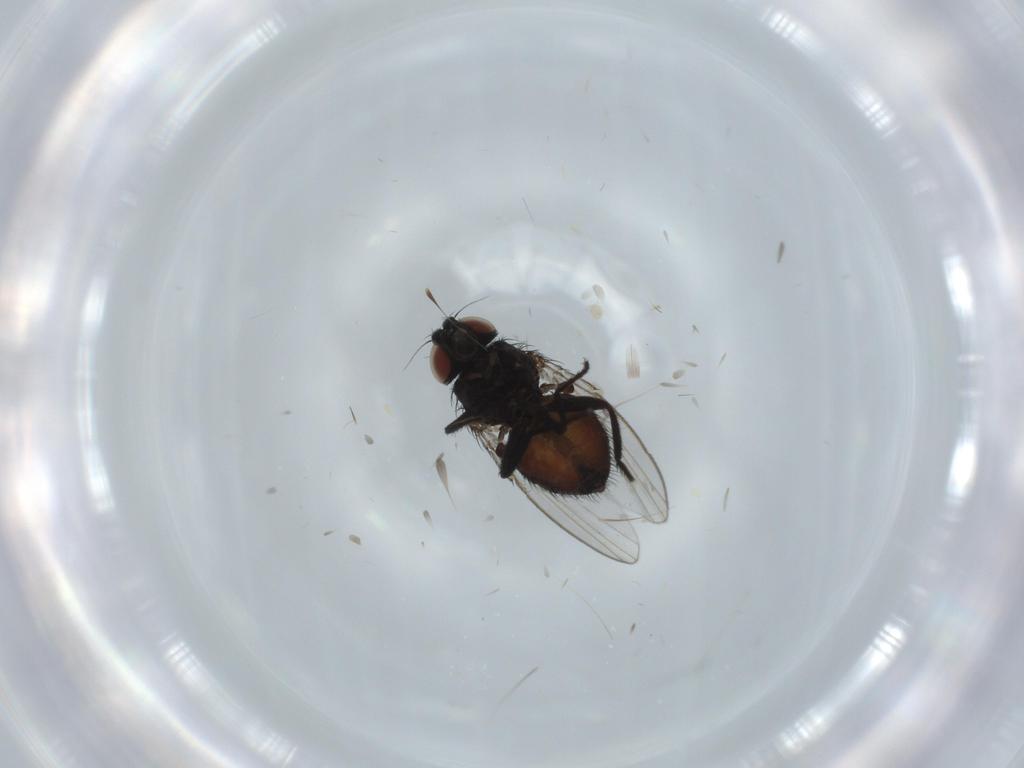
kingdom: Animalia
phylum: Arthropoda
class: Insecta
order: Diptera
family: Milichiidae
